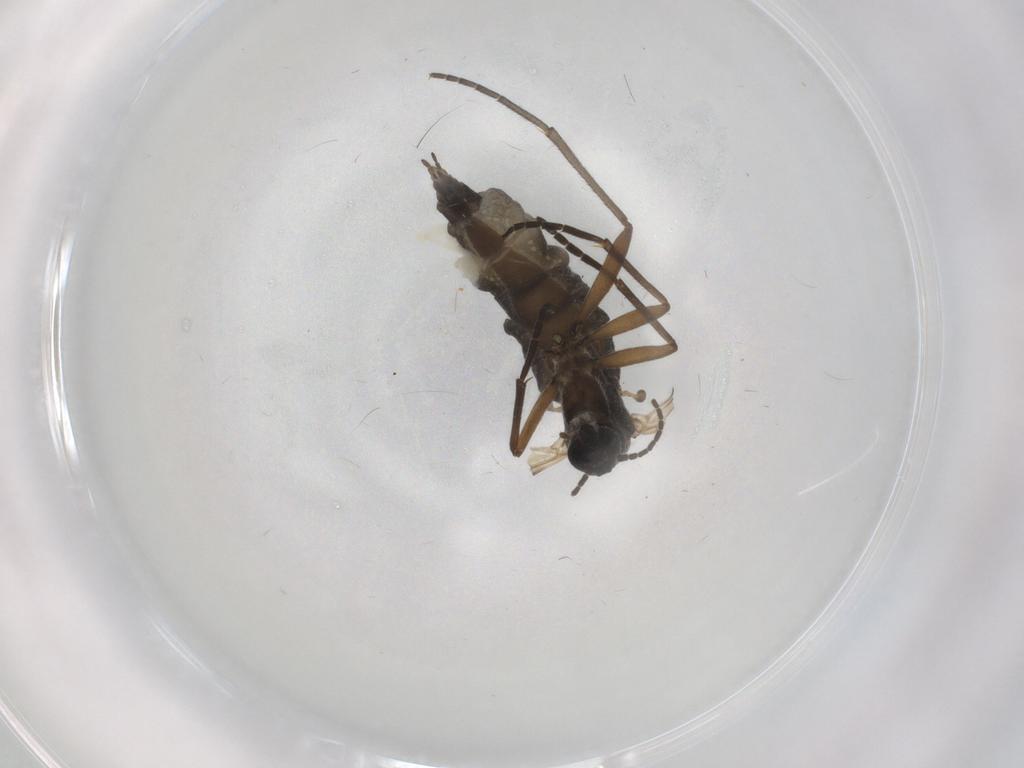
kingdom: Animalia
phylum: Arthropoda
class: Insecta
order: Diptera
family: Sciaridae
